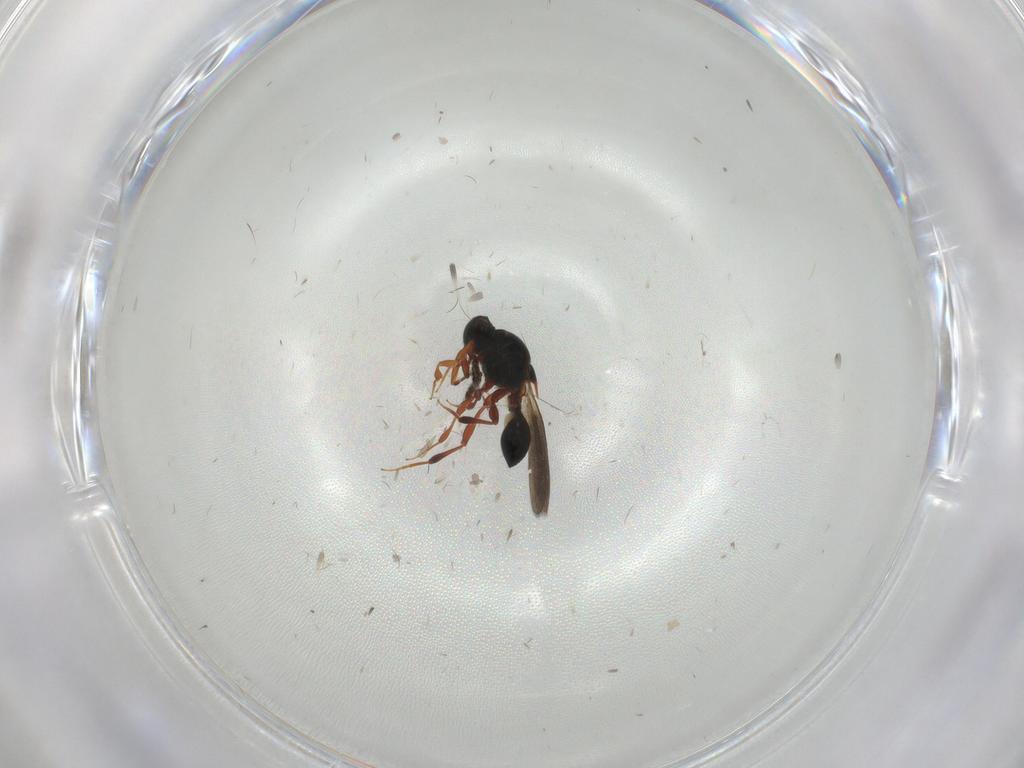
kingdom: Animalia
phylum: Arthropoda
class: Insecta
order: Hymenoptera
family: Platygastridae
